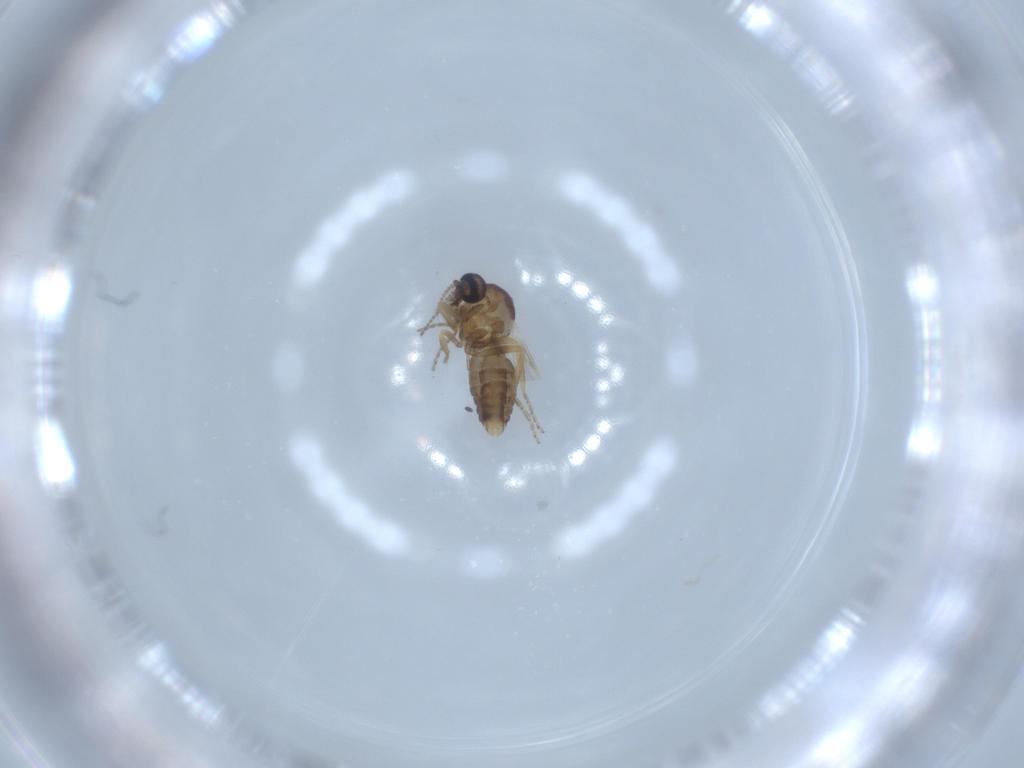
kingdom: Animalia
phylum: Arthropoda
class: Insecta
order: Diptera
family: Ceratopogonidae
